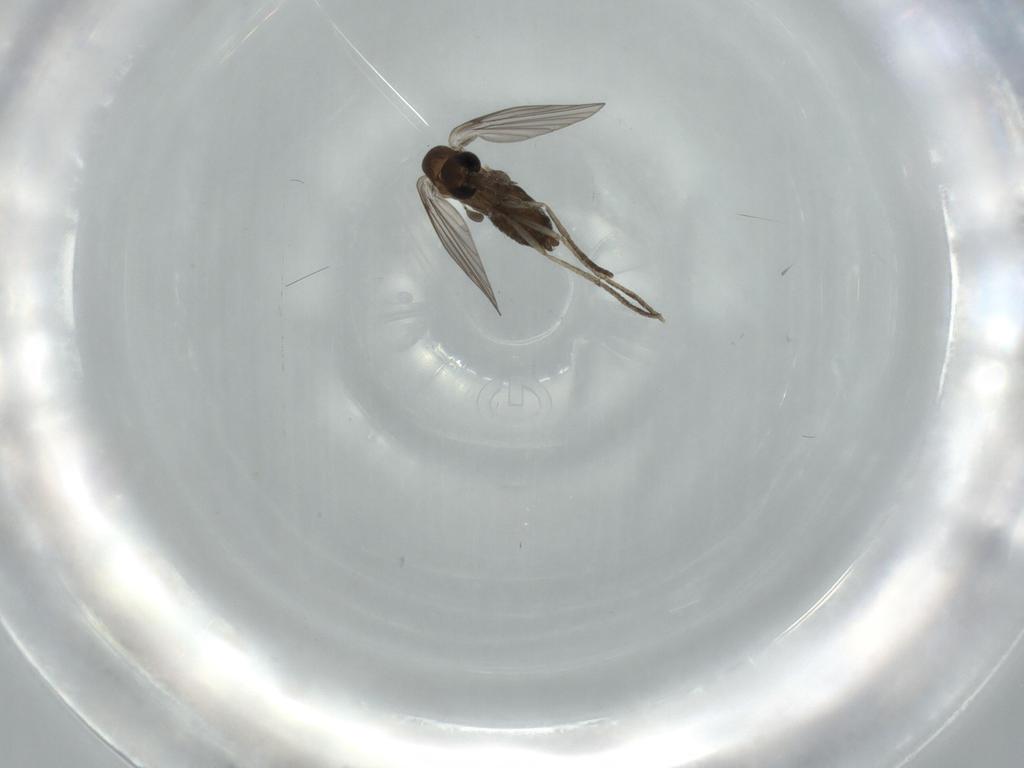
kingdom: Animalia
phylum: Arthropoda
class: Insecta
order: Diptera
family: Psychodidae
